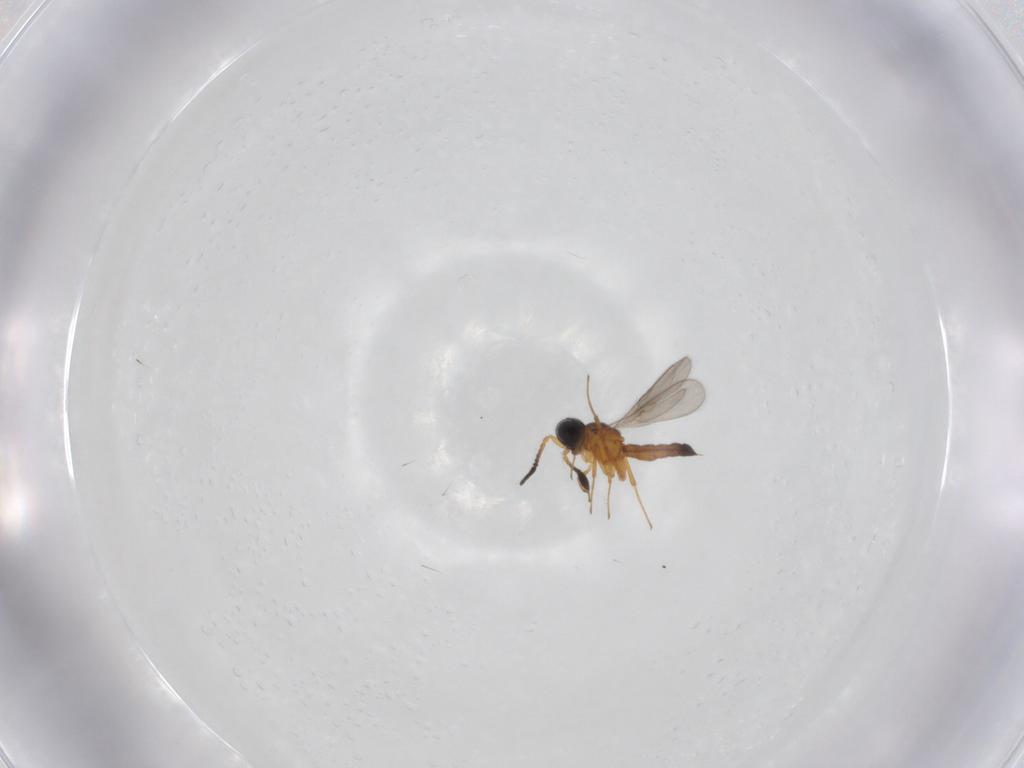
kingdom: Animalia
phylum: Arthropoda
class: Insecta
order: Hymenoptera
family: Scelionidae
